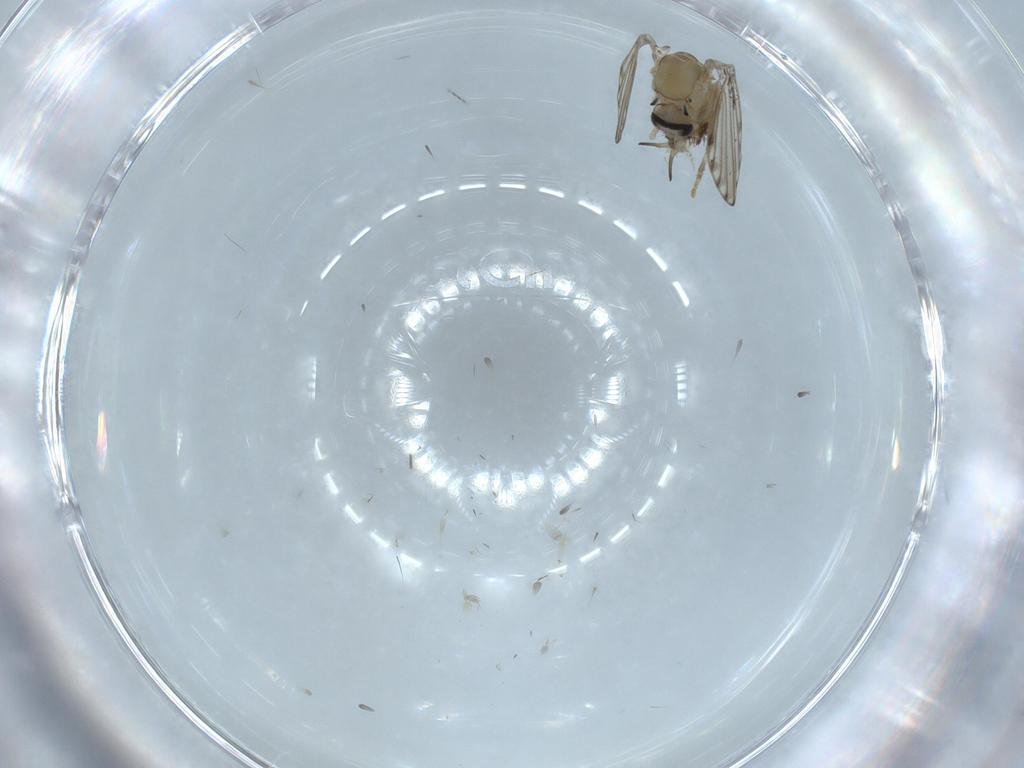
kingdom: Animalia
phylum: Arthropoda
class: Insecta
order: Diptera
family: Psychodidae
